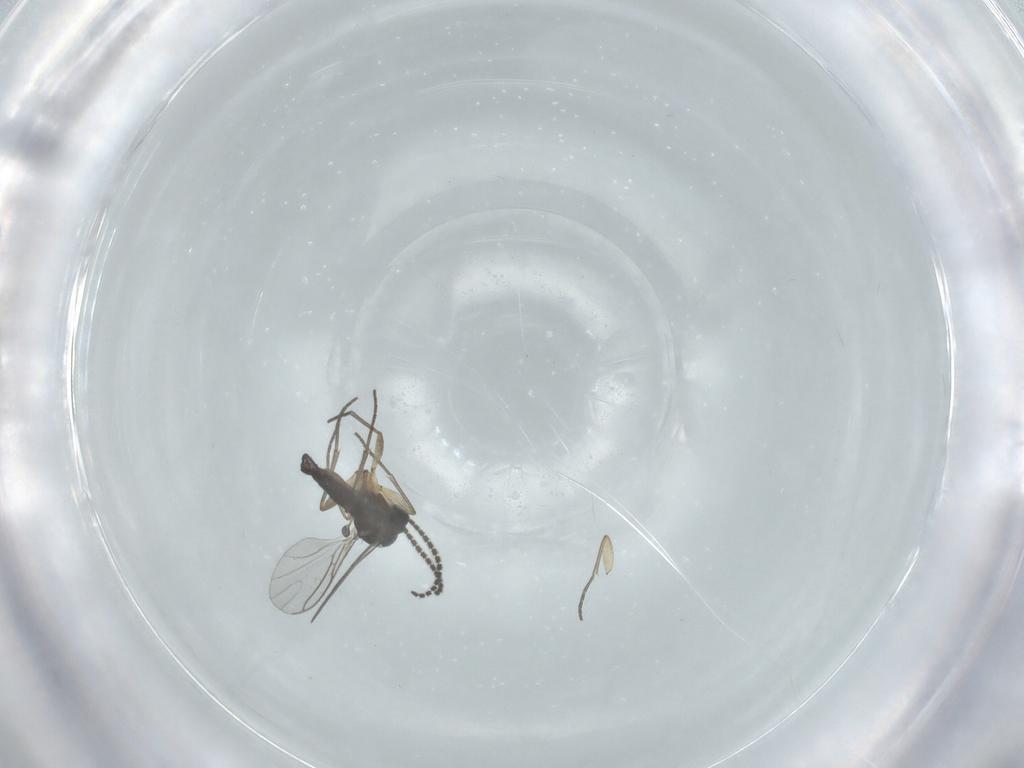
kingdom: Animalia
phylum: Arthropoda
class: Insecta
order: Diptera
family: Sciaridae
